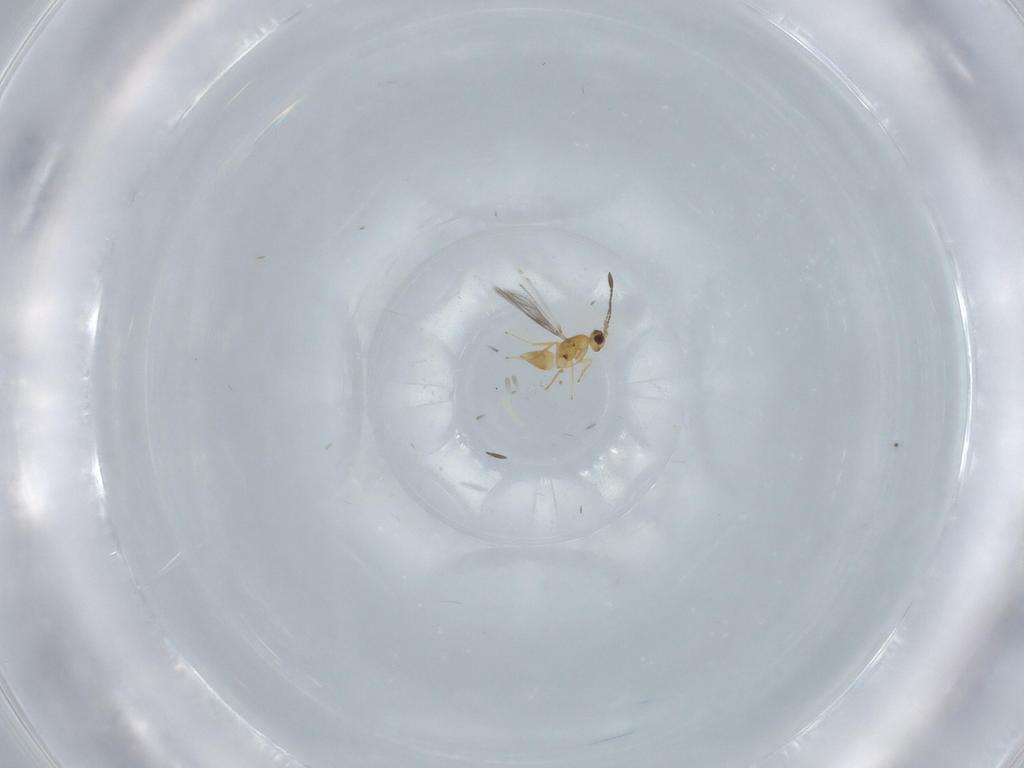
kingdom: Animalia
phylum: Arthropoda
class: Insecta
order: Hymenoptera
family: Mymaridae
